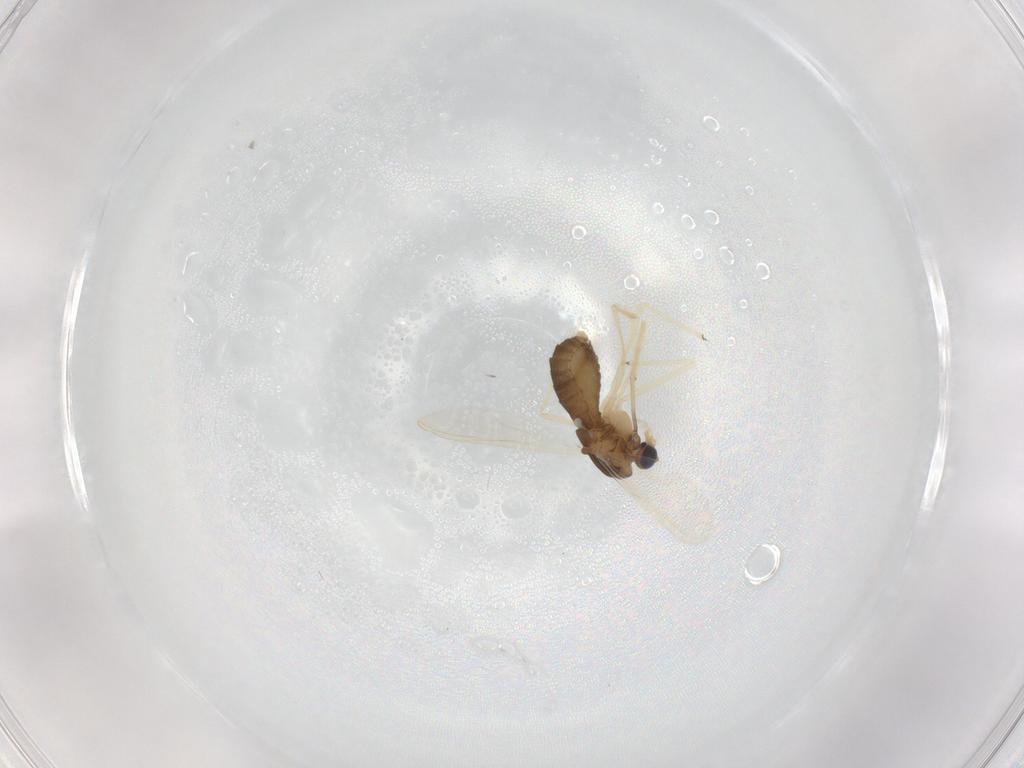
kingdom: Animalia
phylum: Arthropoda
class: Insecta
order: Diptera
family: Chironomidae
